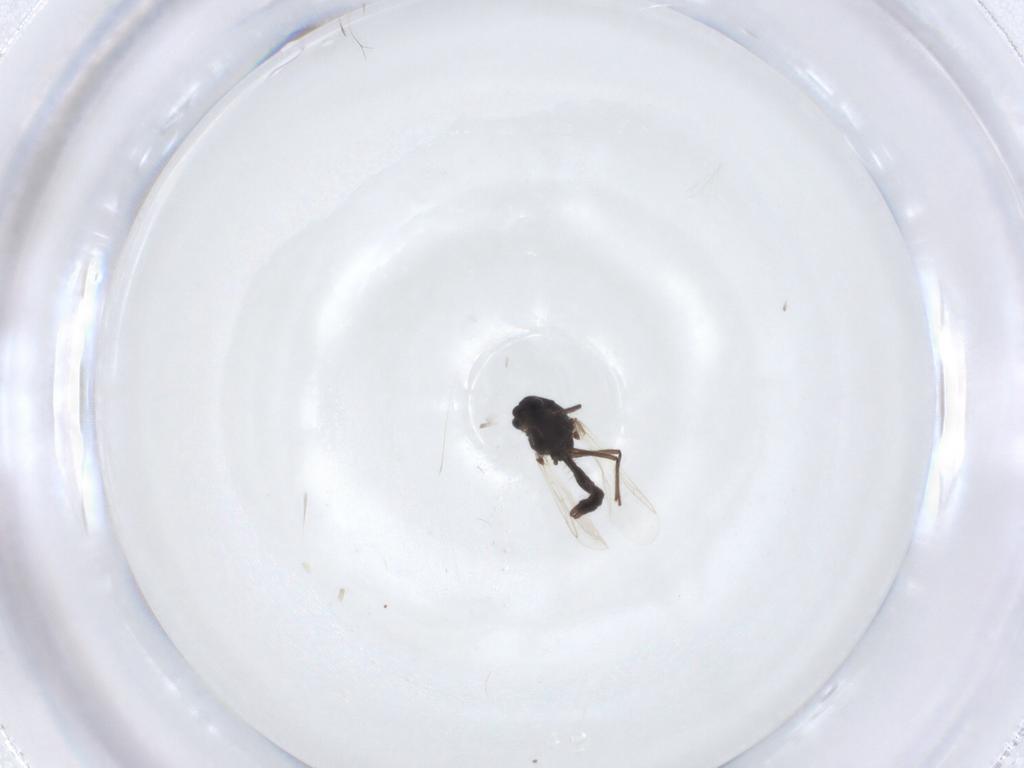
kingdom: Animalia
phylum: Arthropoda
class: Insecta
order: Diptera
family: Chironomidae
